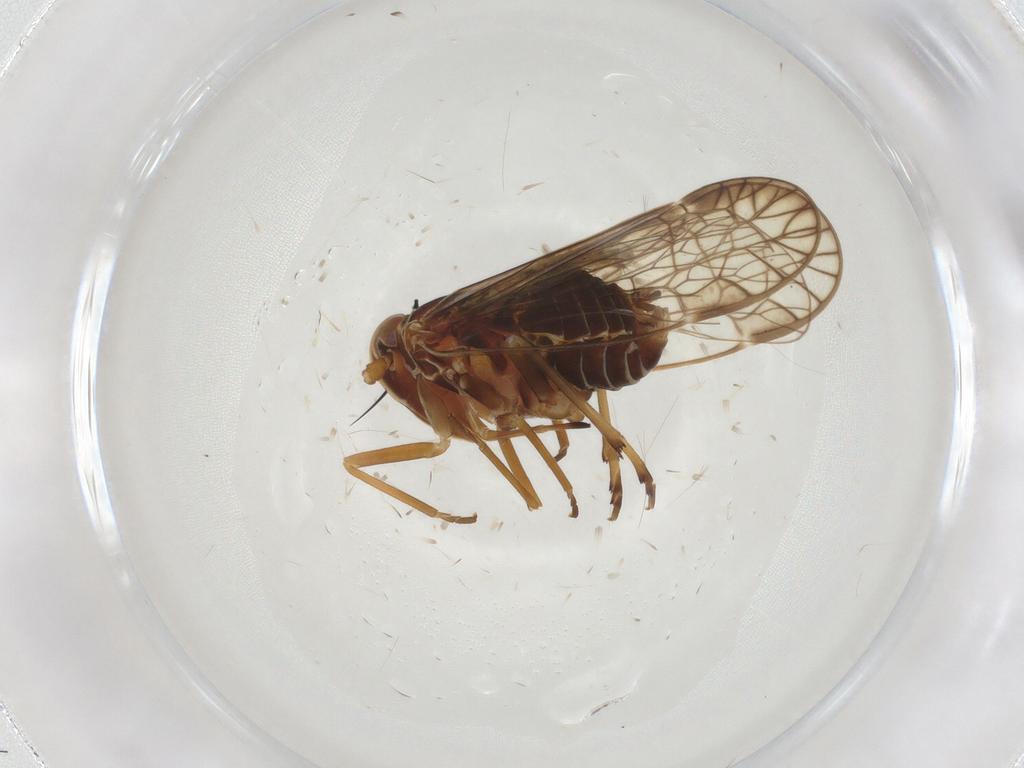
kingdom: Animalia
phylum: Arthropoda
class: Insecta
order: Hemiptera
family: Kinnaridae
